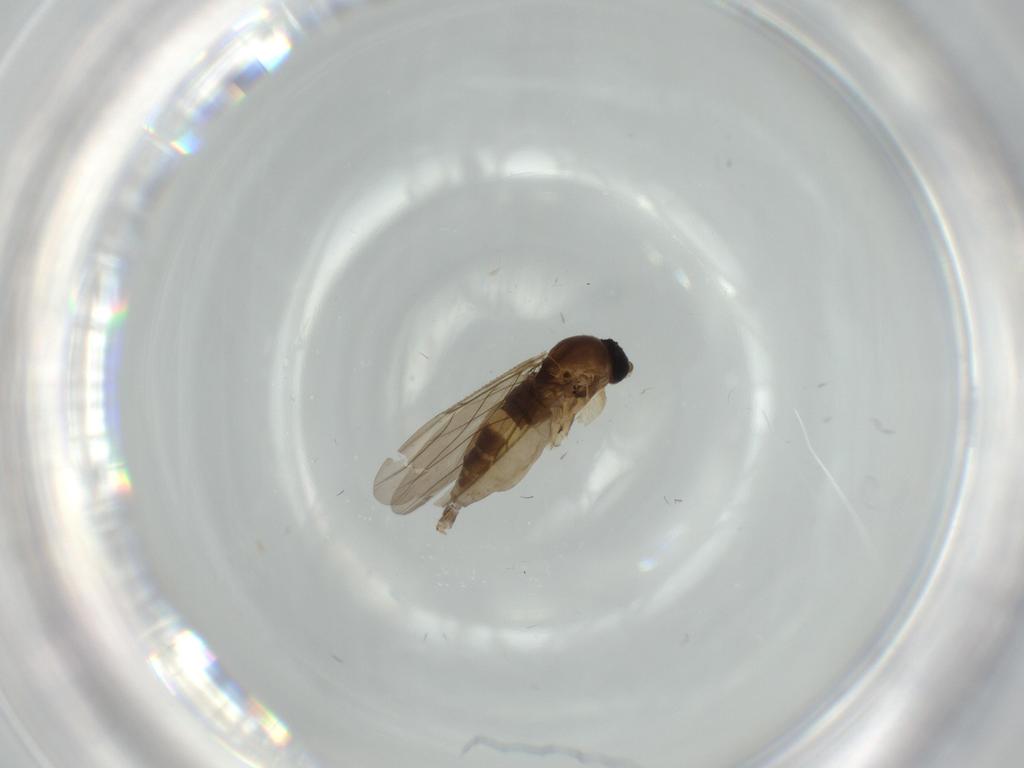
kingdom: Animalia
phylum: Arthropoda
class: Insecta
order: Diptera
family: Phoridae
